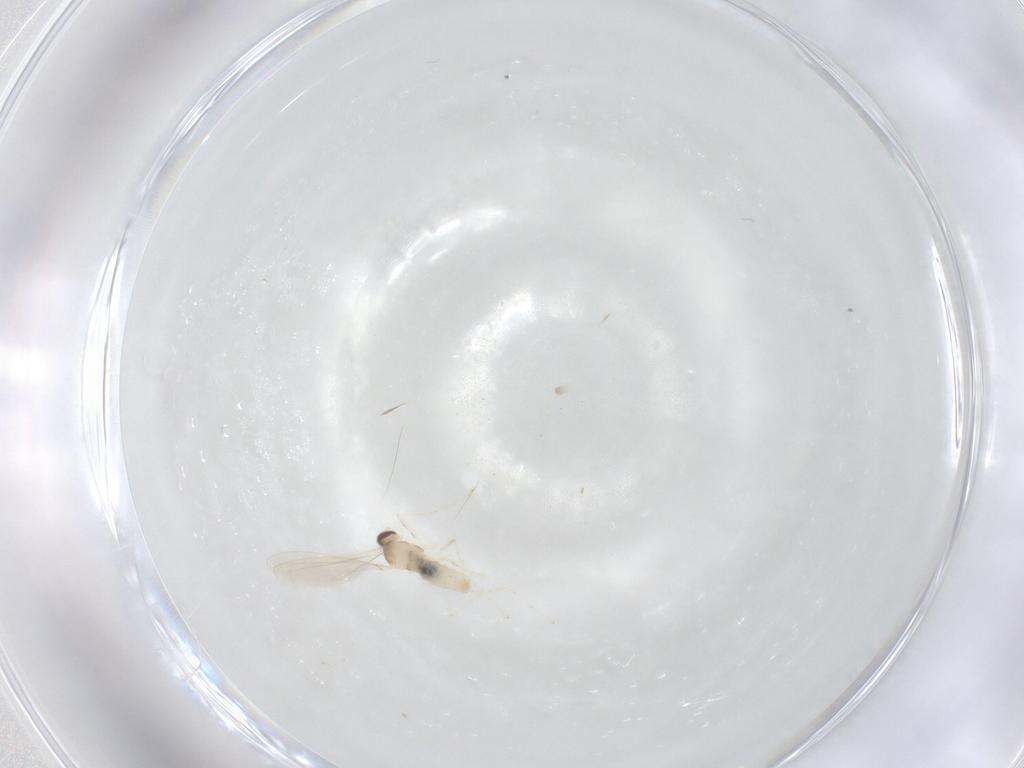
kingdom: Animalia
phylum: Arthropoda
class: Insecta
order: Diptera
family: Cecidomyiidae
